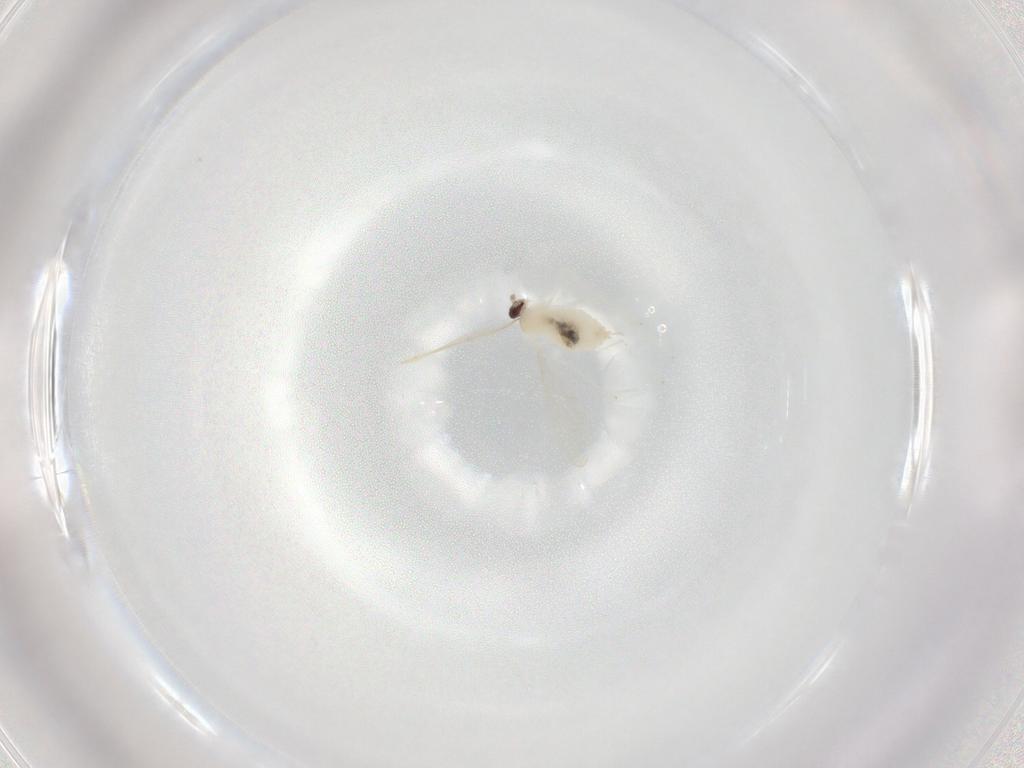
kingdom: Animalia
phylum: Arthropoda
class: Insecta
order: Diptera
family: Cecidomyiidae
